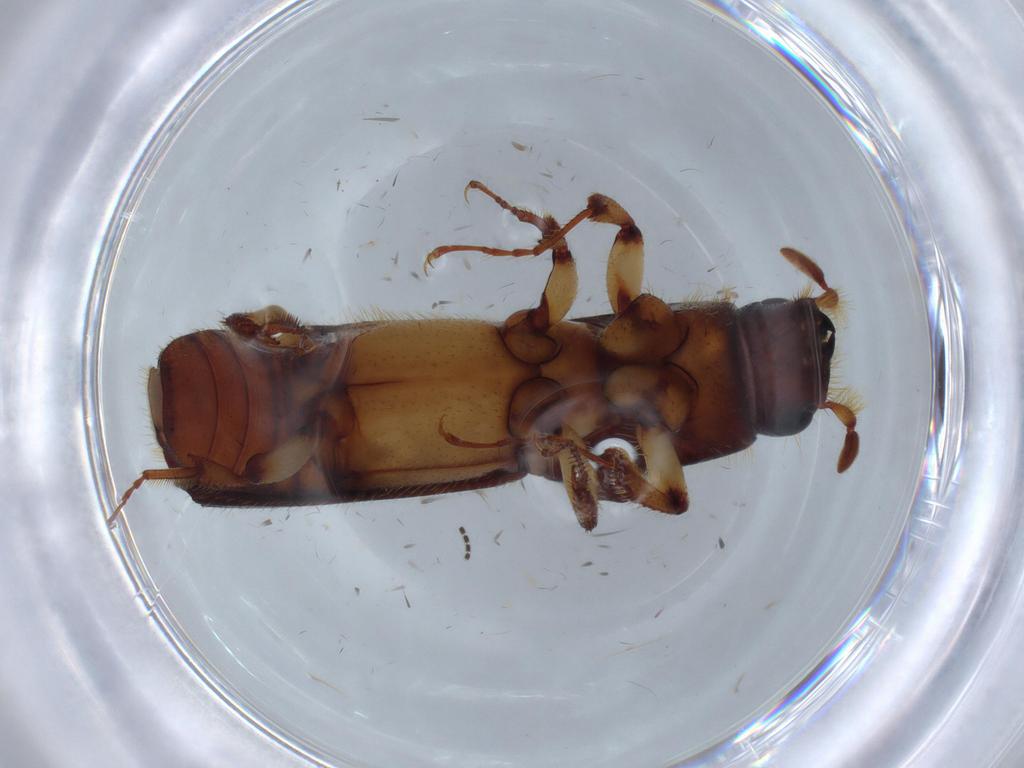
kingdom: Animalia
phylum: Arthropoda
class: Insecta
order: Coleoptera
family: Curculionidae
